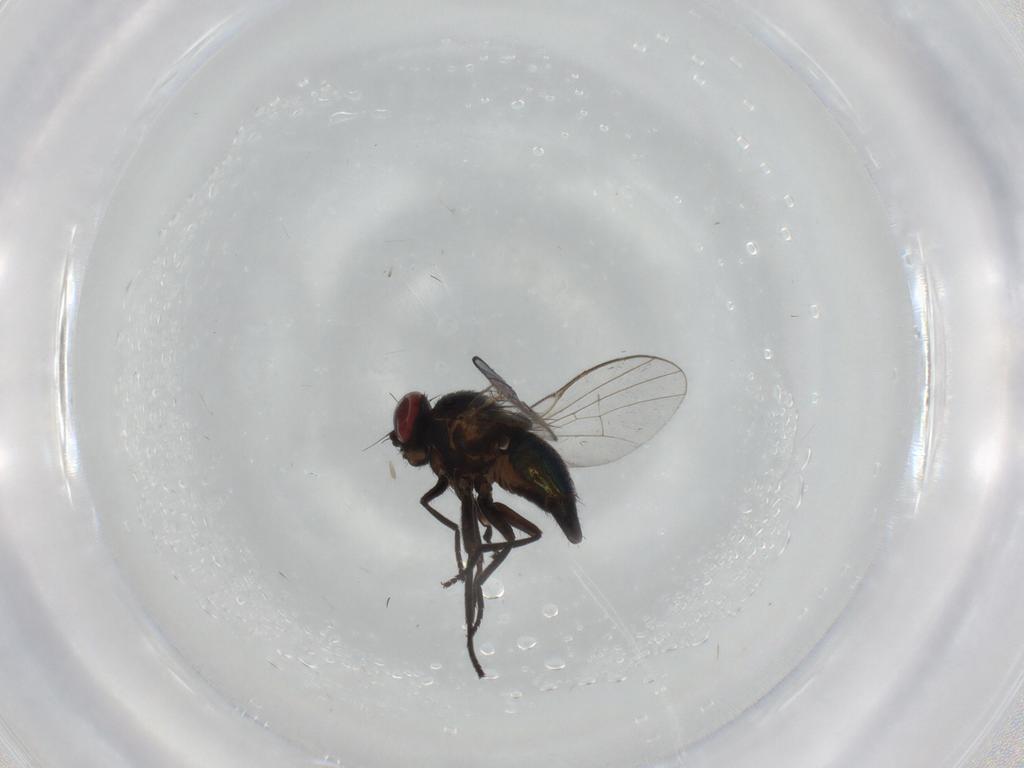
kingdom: Animalia
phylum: Arthropoda
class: Insecta
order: Diptera
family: Agromyzidae
